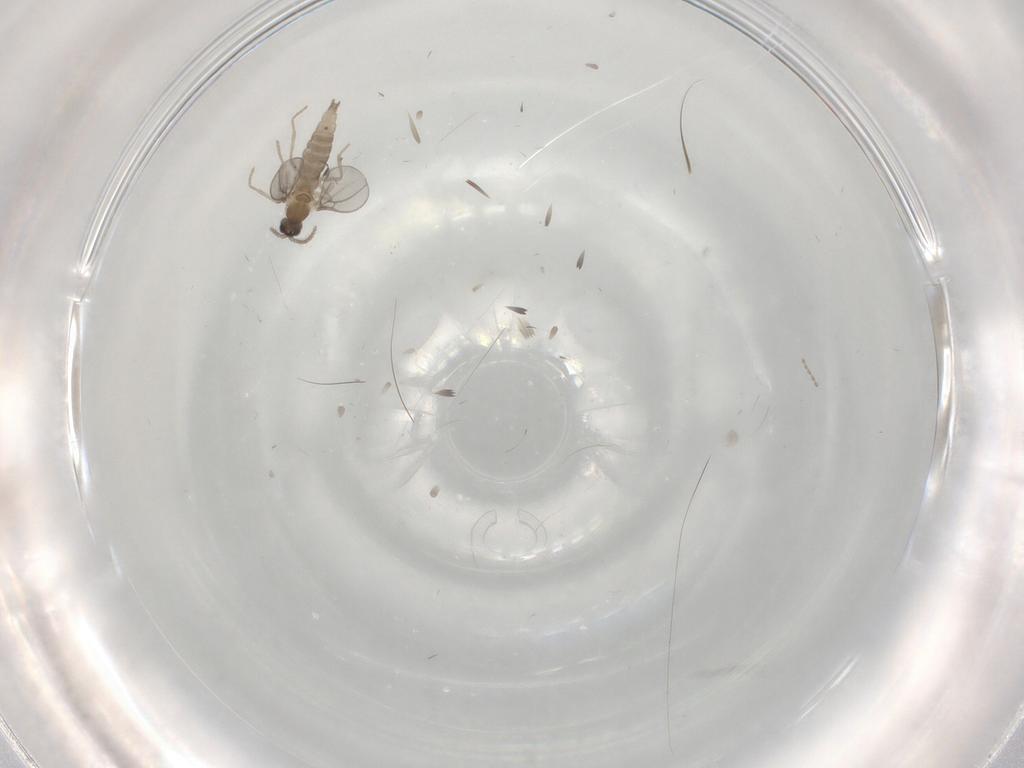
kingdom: Animalia
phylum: Arthropoda
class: Insecta
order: Diptera
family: Cecidomyiidae
